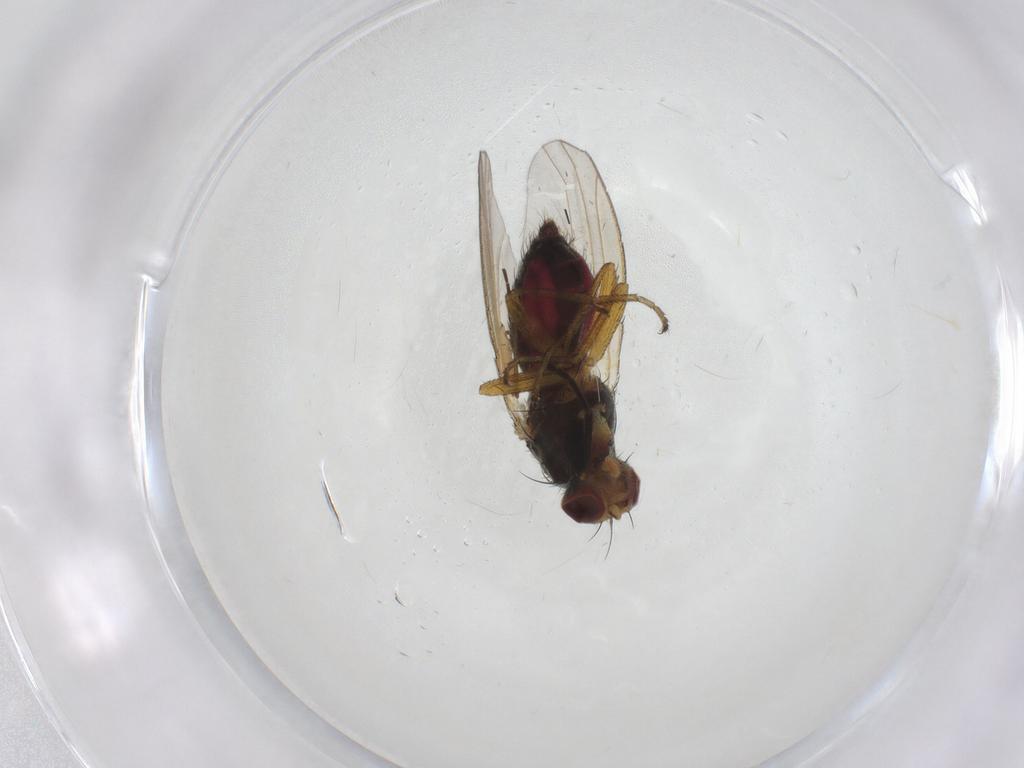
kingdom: Animalia
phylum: Arthropoda
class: Insecta
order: Diptera
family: Heleomyzidae
